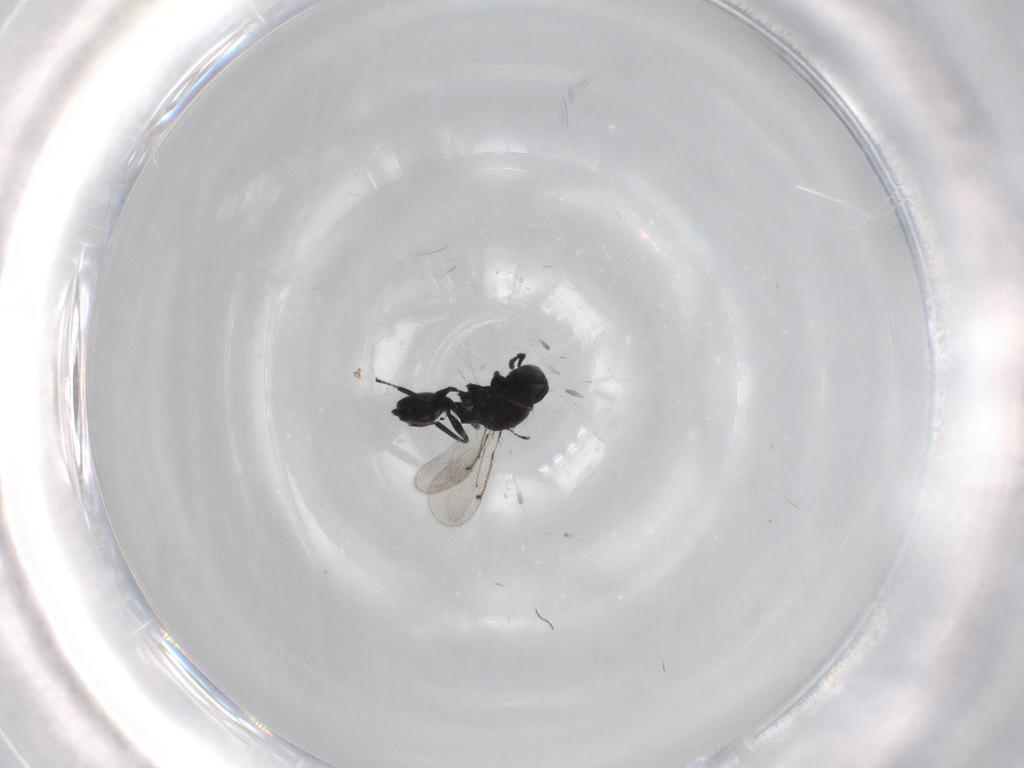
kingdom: Animalia
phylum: Arthropoda
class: Insecta
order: Hymenoptera
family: Eulophidae
